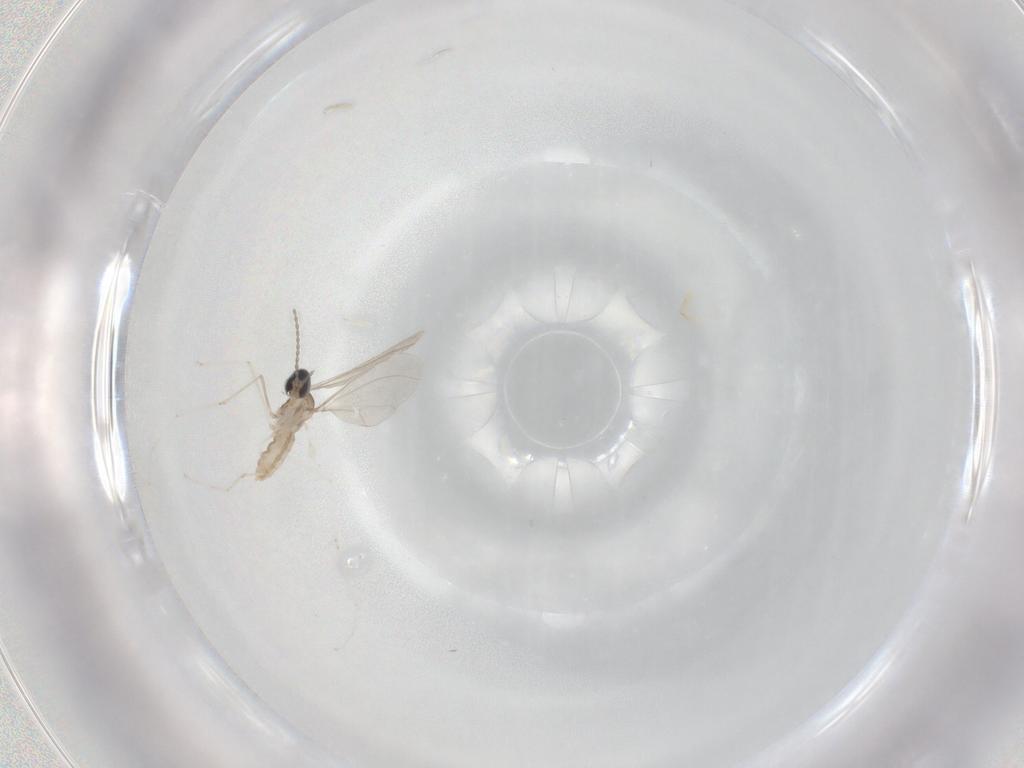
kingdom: Animalia
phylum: Arthropoda
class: Insecta
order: Diptera
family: Cecidomyiidae
